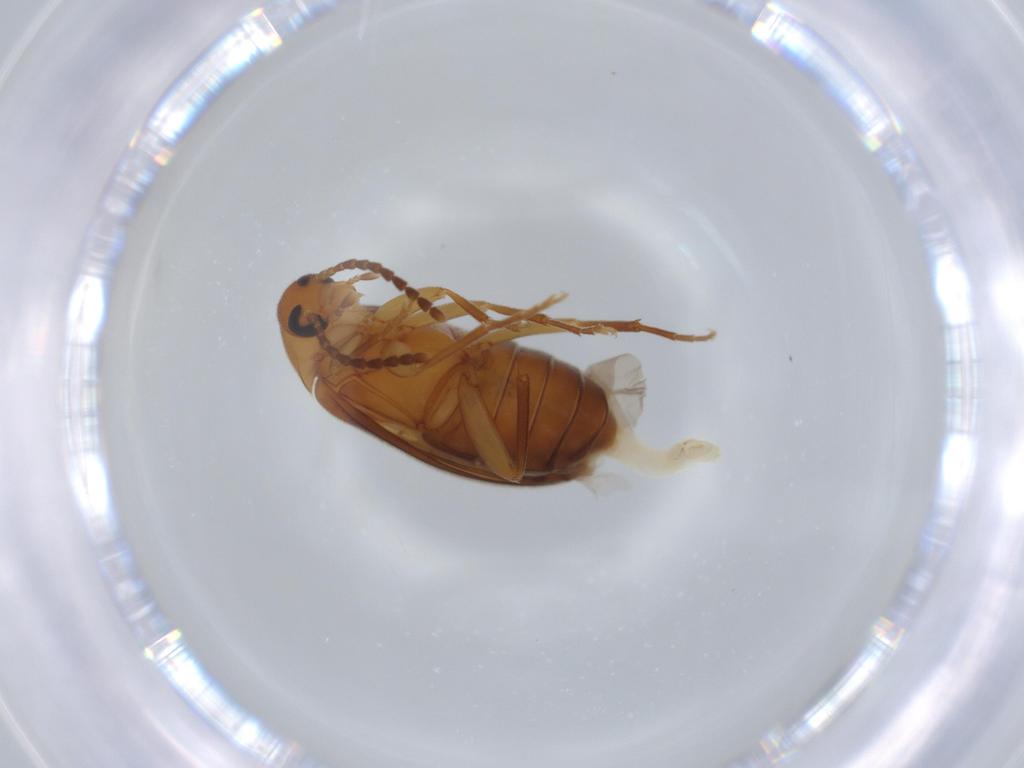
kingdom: Animalia
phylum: Arthropoda
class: Insecta
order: Coleoptera
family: Scraptiidae
